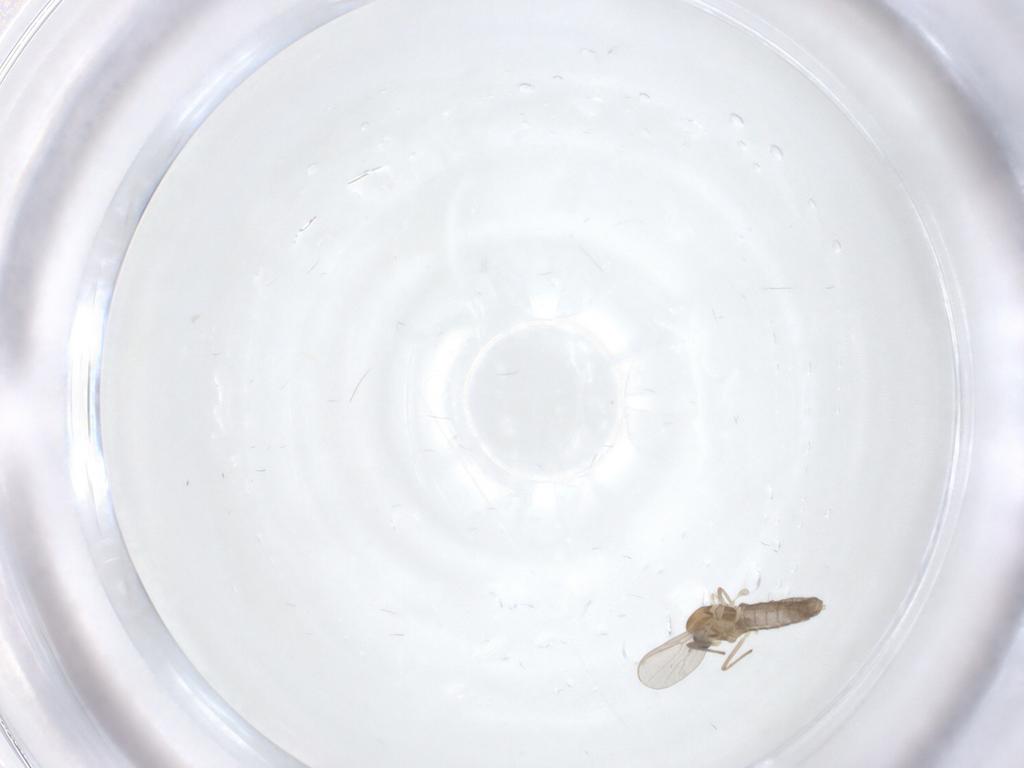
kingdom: Animalia
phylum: Arthropoda
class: Insecta
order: Diptera
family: Chironomidae
